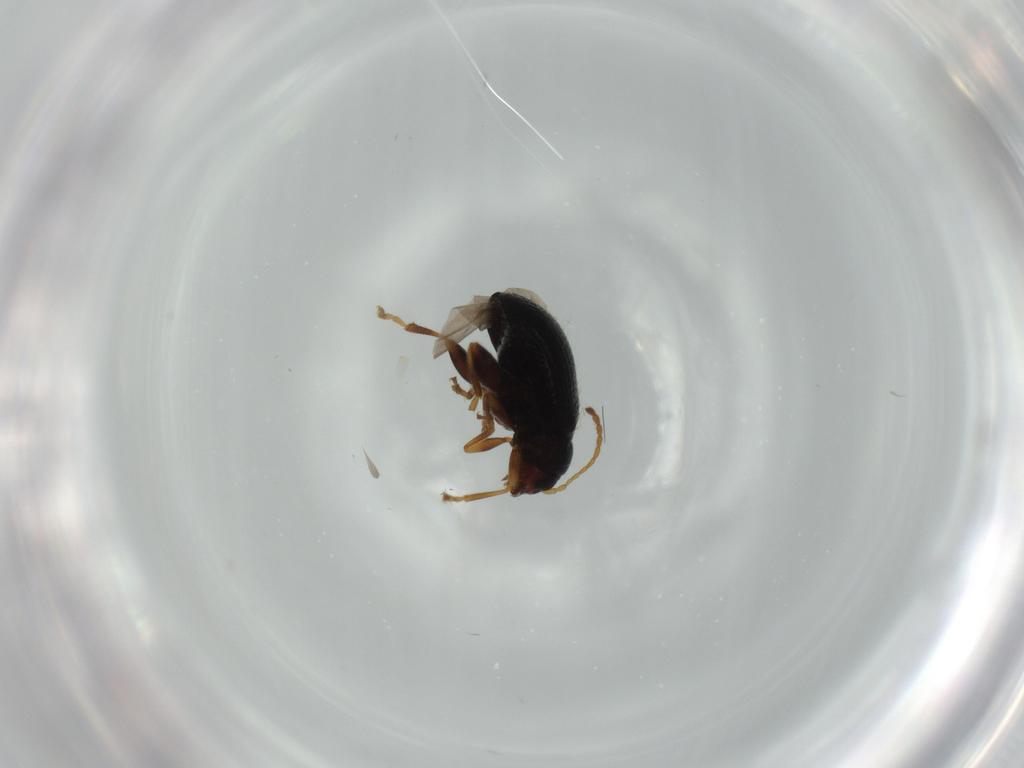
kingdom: Animalia
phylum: Arthropoda
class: Insecta
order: Coleoptera
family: Chrysomelidae
